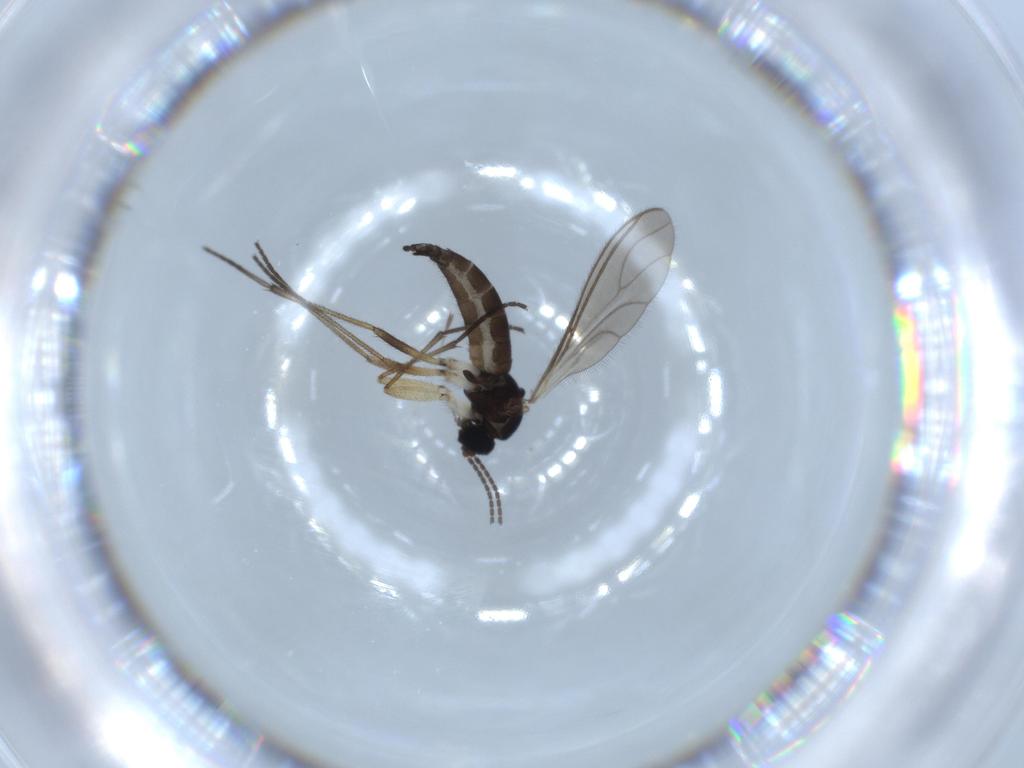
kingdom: Animalia
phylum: Arthropoda
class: Insecta
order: Diptera
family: Sciaridae
